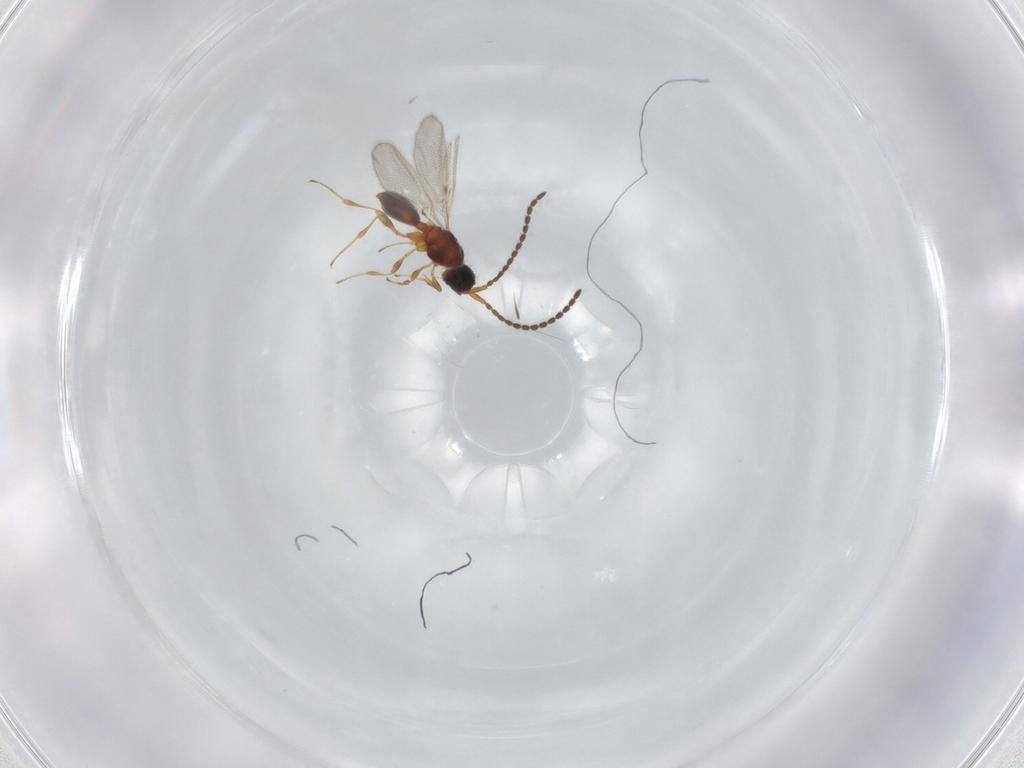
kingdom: Animalia
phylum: Arthropoda
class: Insecta
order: Hymenoptera
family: Diapriidae
